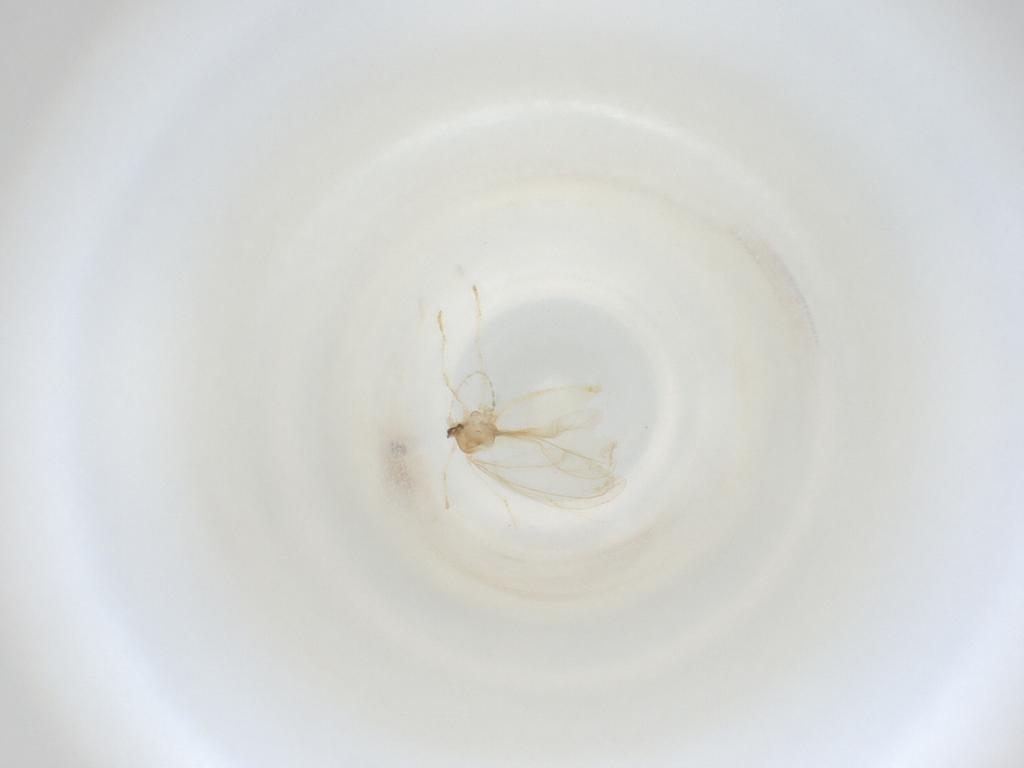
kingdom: Animalia
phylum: Arthropoda
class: Insecta
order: Diptera
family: Cecidomyiidae
